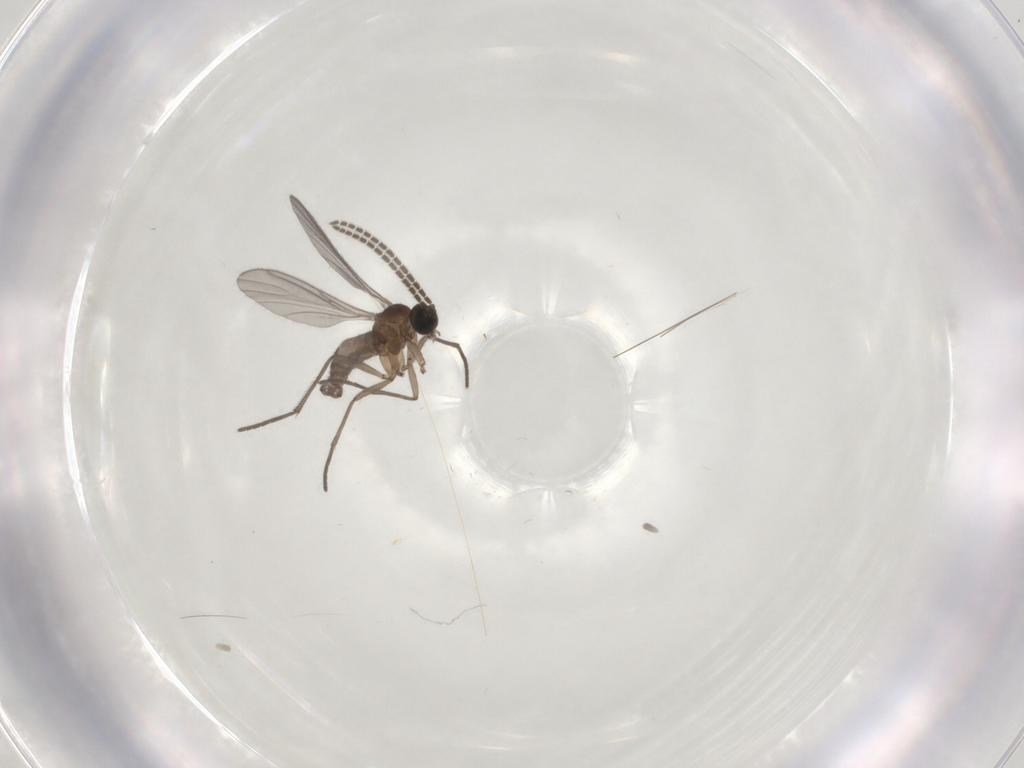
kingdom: Animalia
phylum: Arthropoda
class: Insecta
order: Diptera
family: Sciaridae
